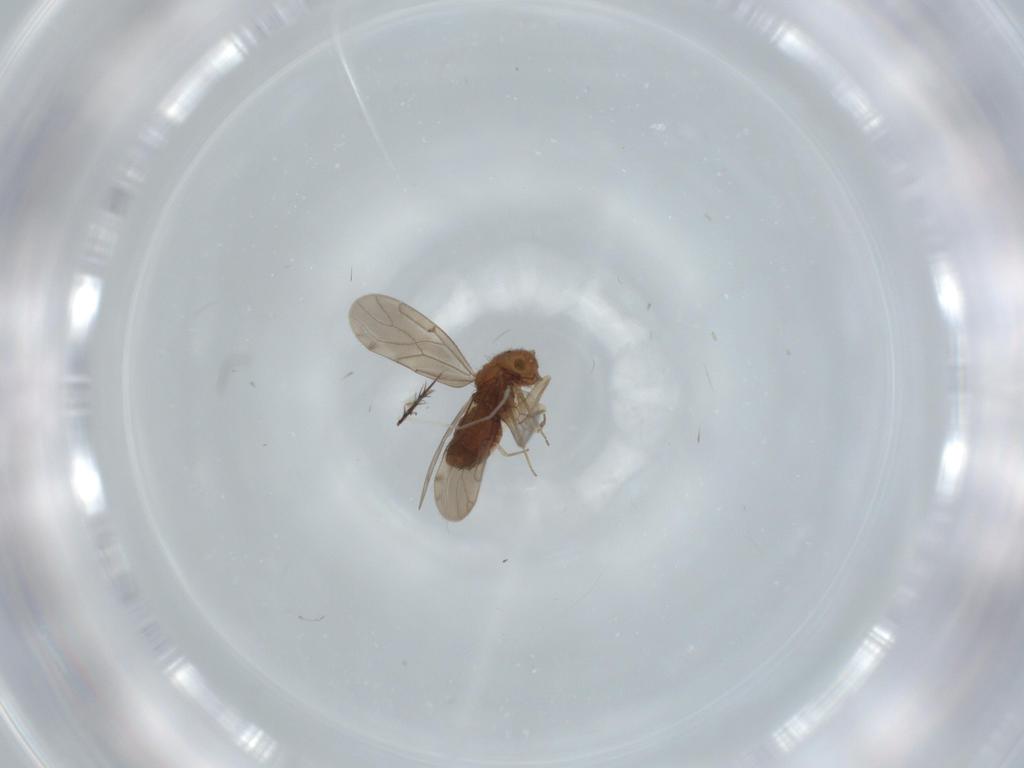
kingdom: Animalia
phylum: Arthropoda
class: Insecta
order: Psocodea
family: Ectopsocidae
